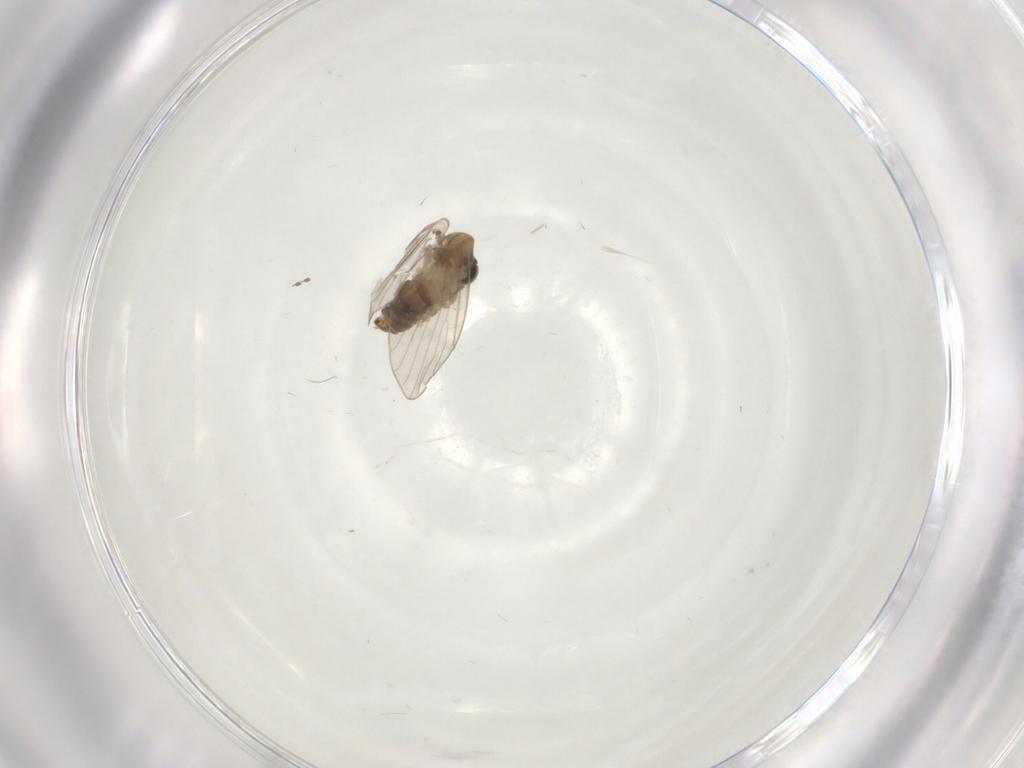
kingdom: Animalia
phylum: Arthropoda
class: Insecta
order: Diptera
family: Psychodidae
